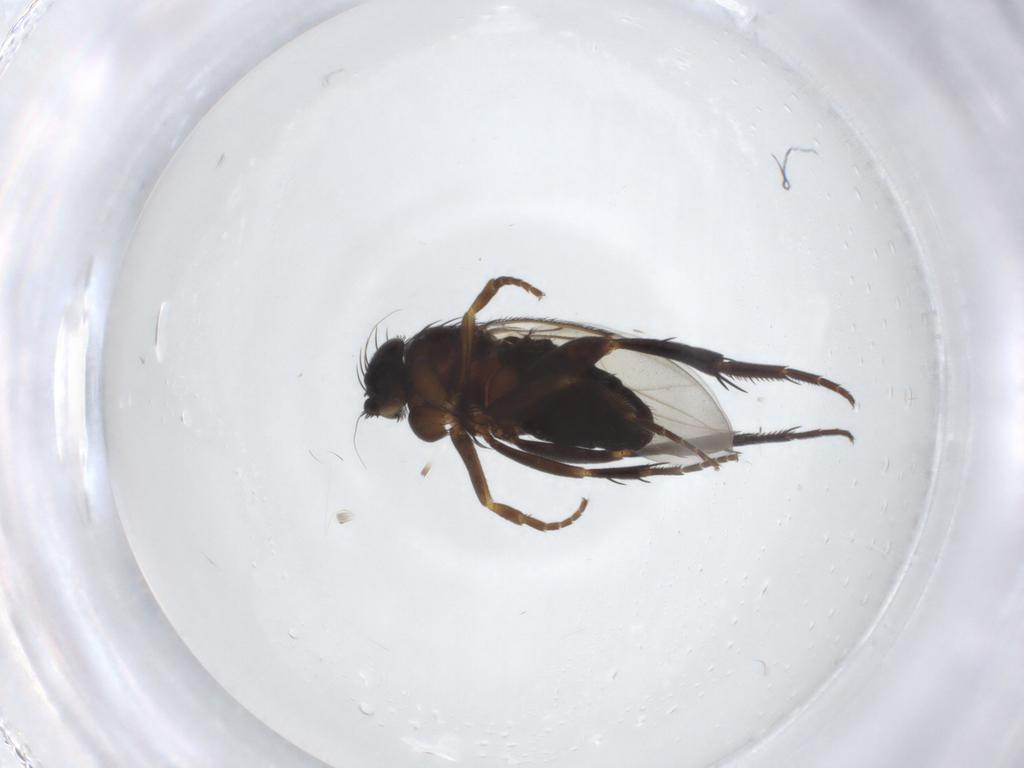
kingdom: Animalia
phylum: Arthropoda
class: Insecta
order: Diptera
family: Phoridae
